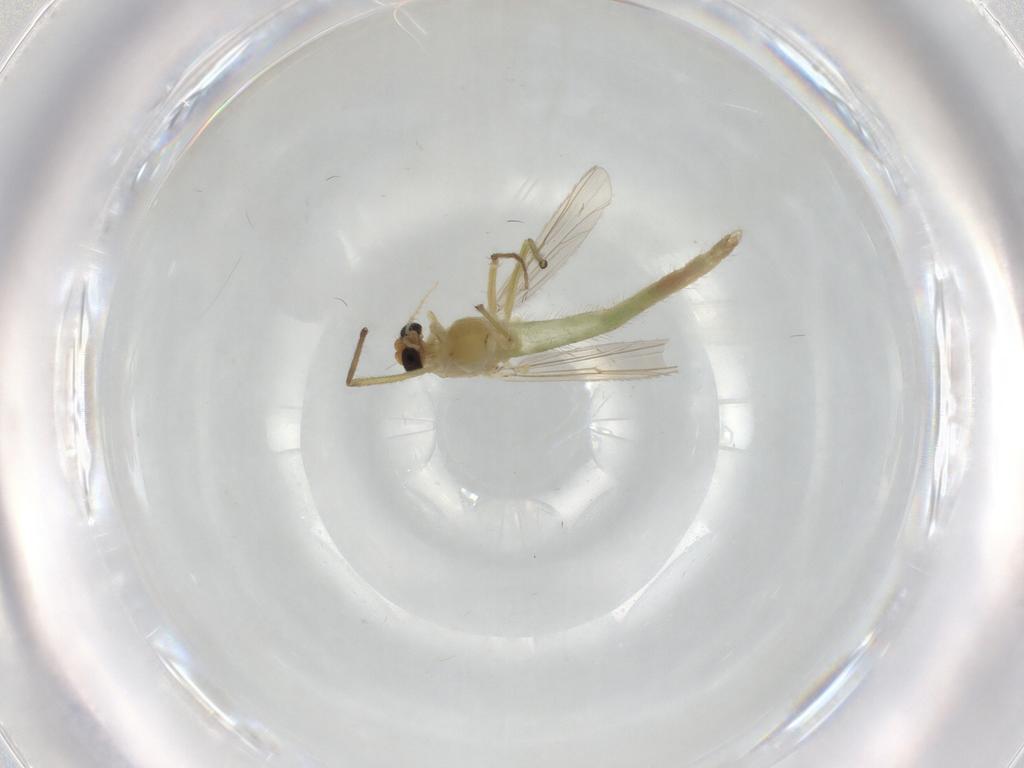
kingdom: Animalia
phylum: Arthropoda
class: Insecta
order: Diptera
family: Chironomidae
